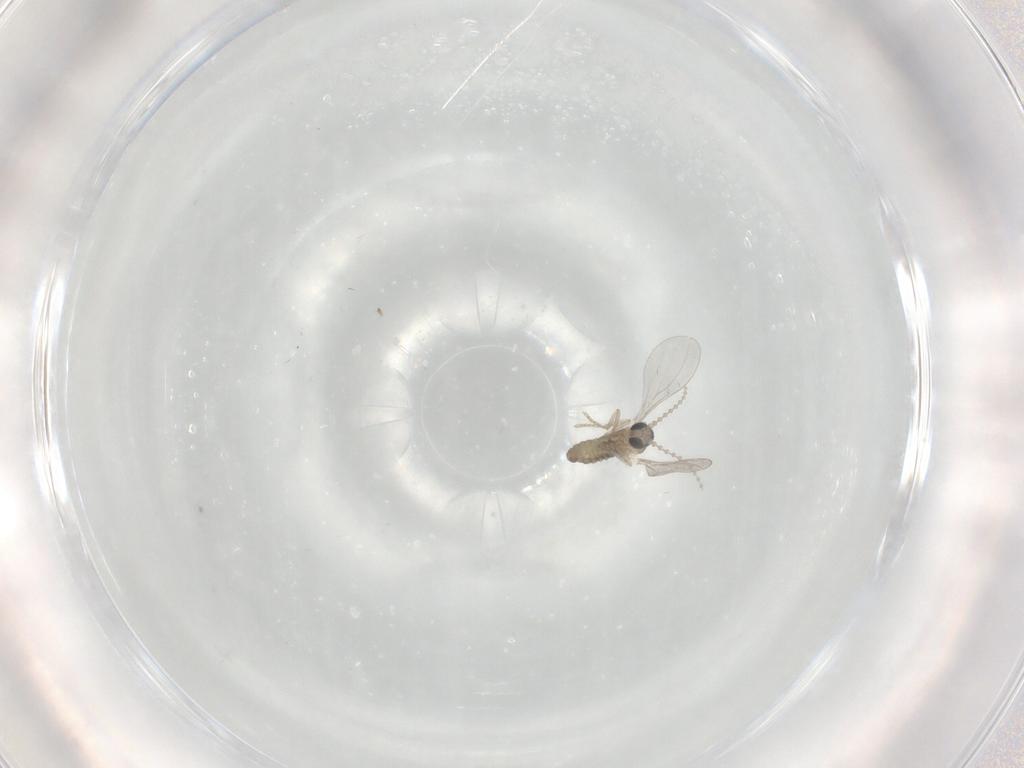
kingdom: Animalia
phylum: Arthropoda
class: Insecta
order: Diptera
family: Cecidomyiidae
